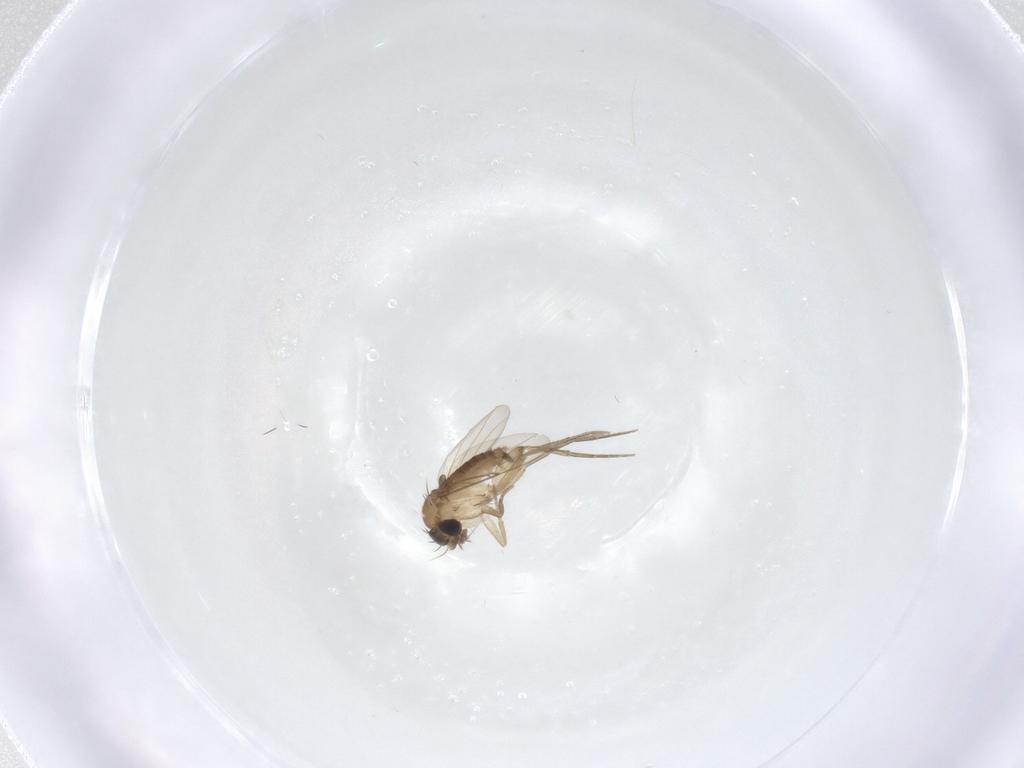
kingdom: Animalia
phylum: Arthropoda
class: Insecta
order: Diptera
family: Phoridae
